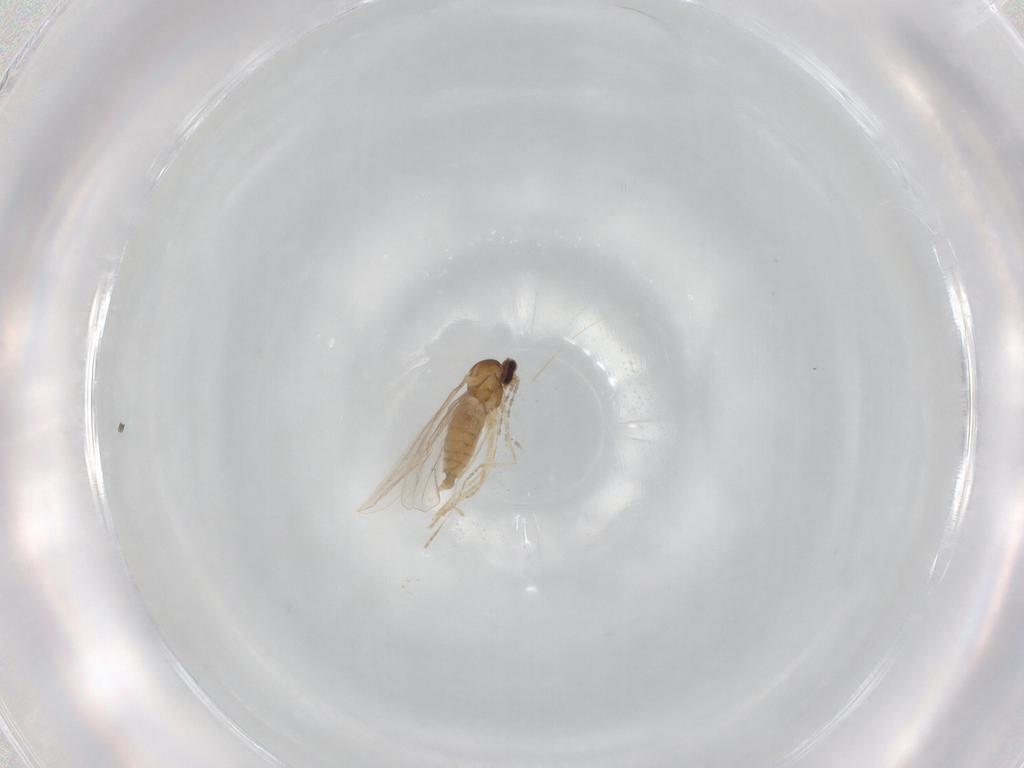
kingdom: Animalia
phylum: Arthropoda
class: Insecta
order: Diptera
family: Cecidomyiidae
